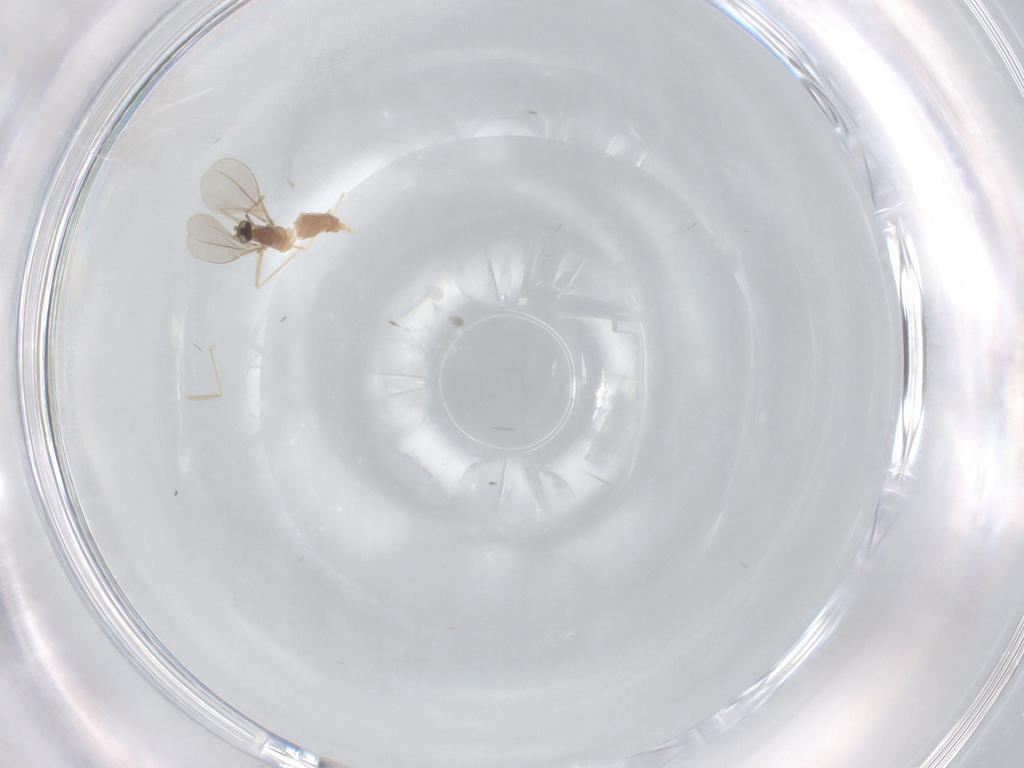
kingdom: Animalia
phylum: Arthropoda
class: Insecta
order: Diptera
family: Cecidomyiidae
